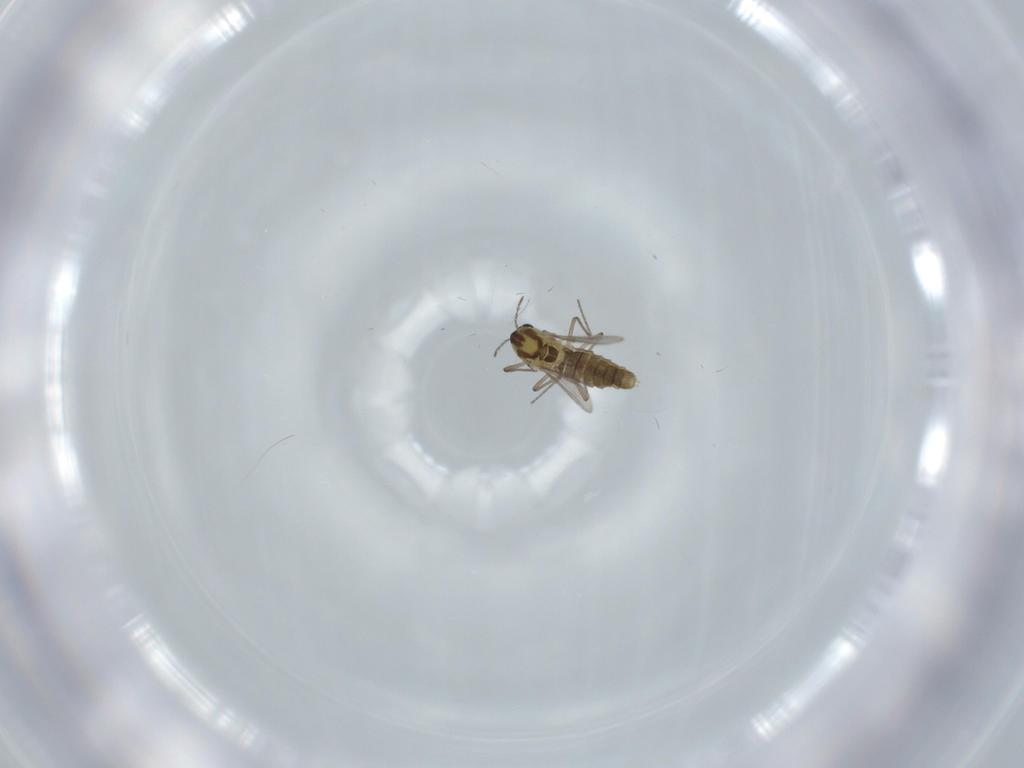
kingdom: Animalia
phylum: Arthropoda
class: Insecta
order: Diptera
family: Chironomidae
